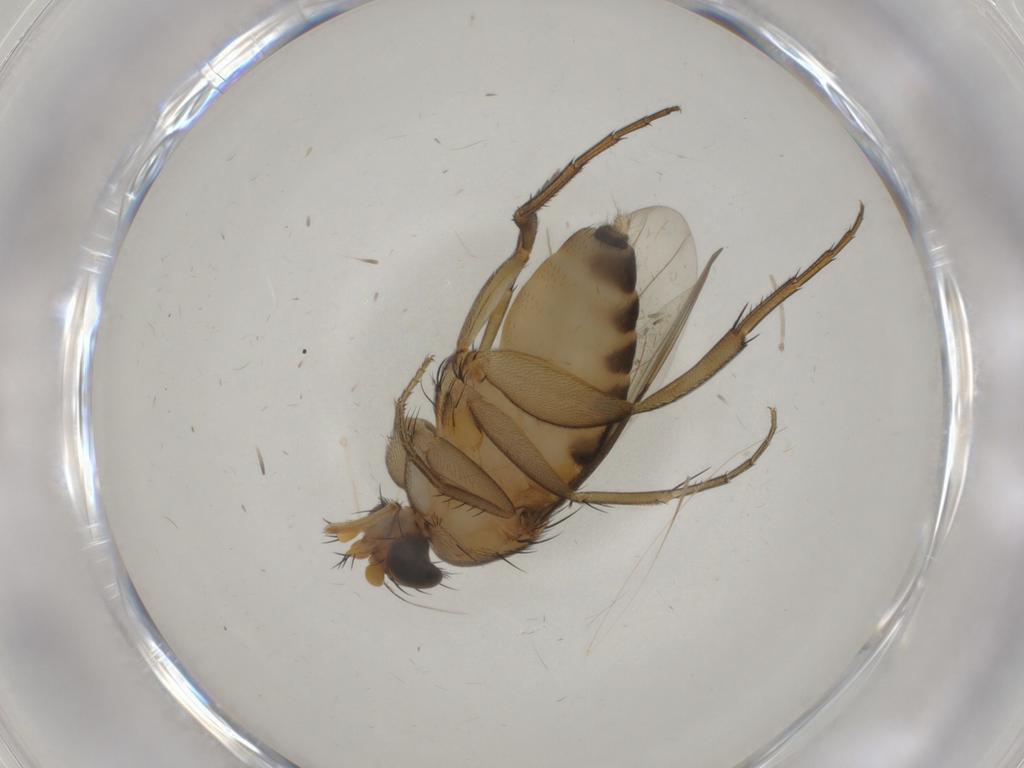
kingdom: Animalia
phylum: Arthropoda
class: Insecta
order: Diptera
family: Phoridae
